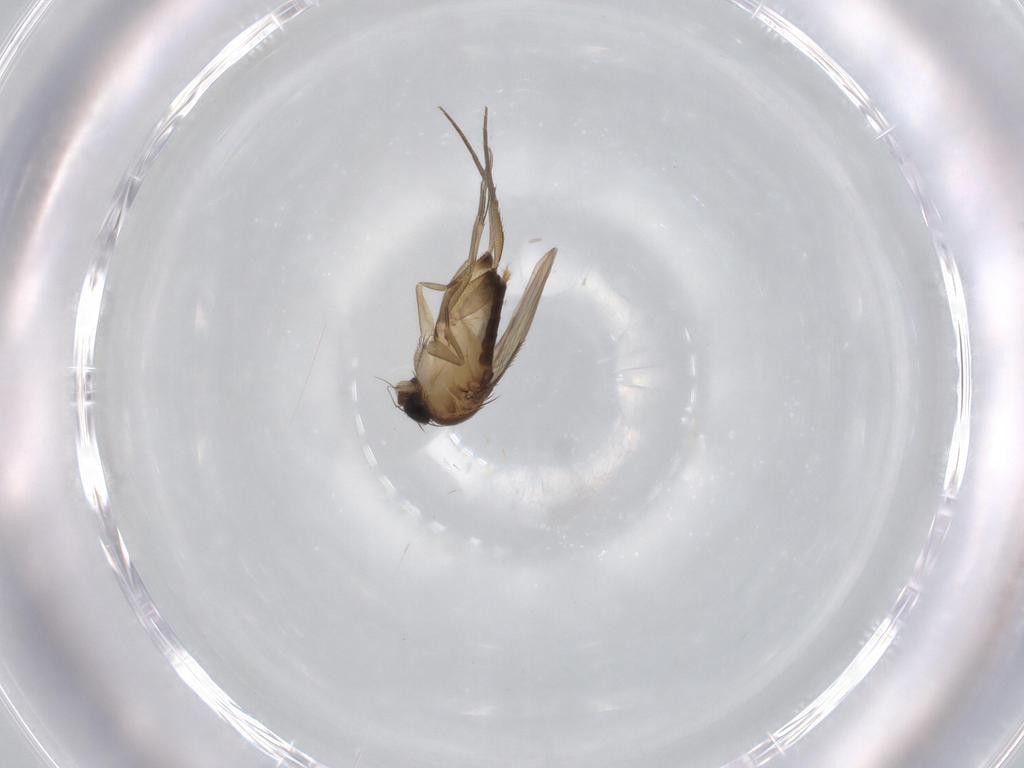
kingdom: Animalia
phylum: Arthropoda
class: Insecta
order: Diptera
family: Phoridae
